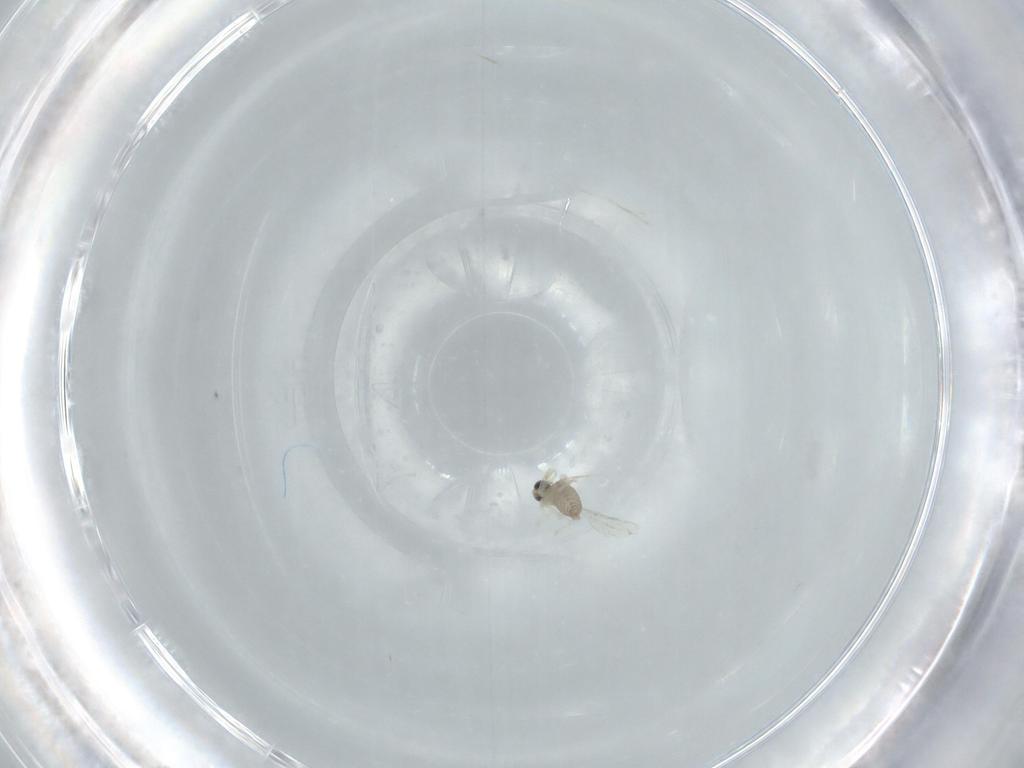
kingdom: Animalia
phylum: Arthropoda
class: Insecta
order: Diptera
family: Cecidomyiidae
